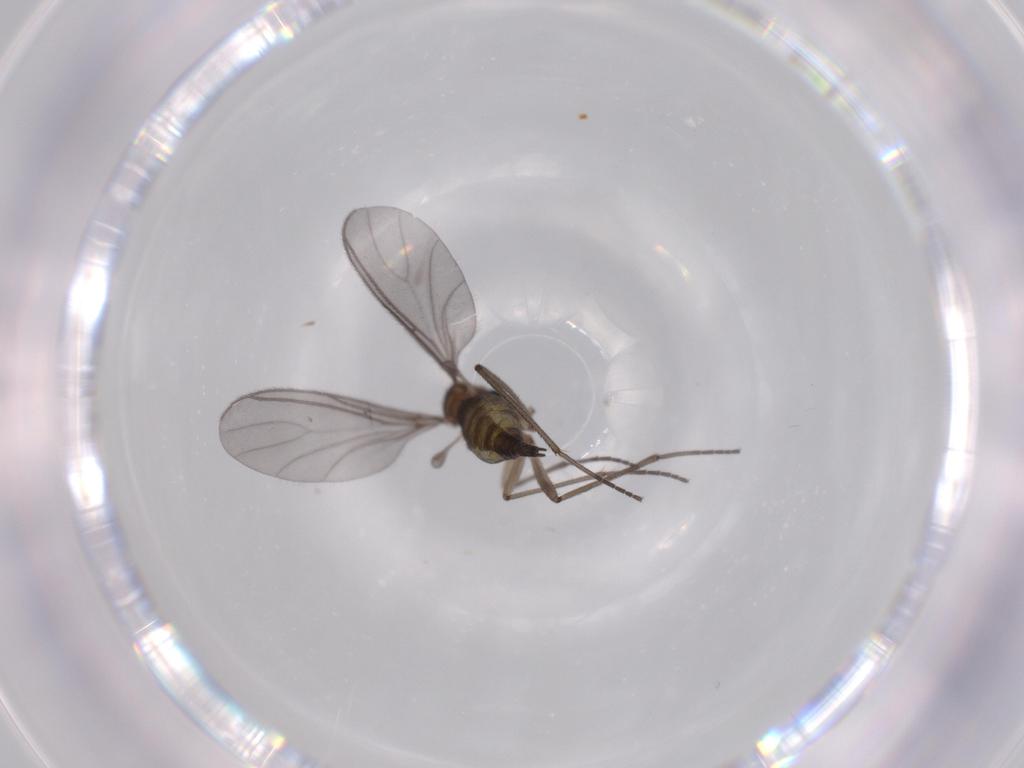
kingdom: Animalia
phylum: Arthropoda
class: Insecta
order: Diptera
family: Sciaridae
